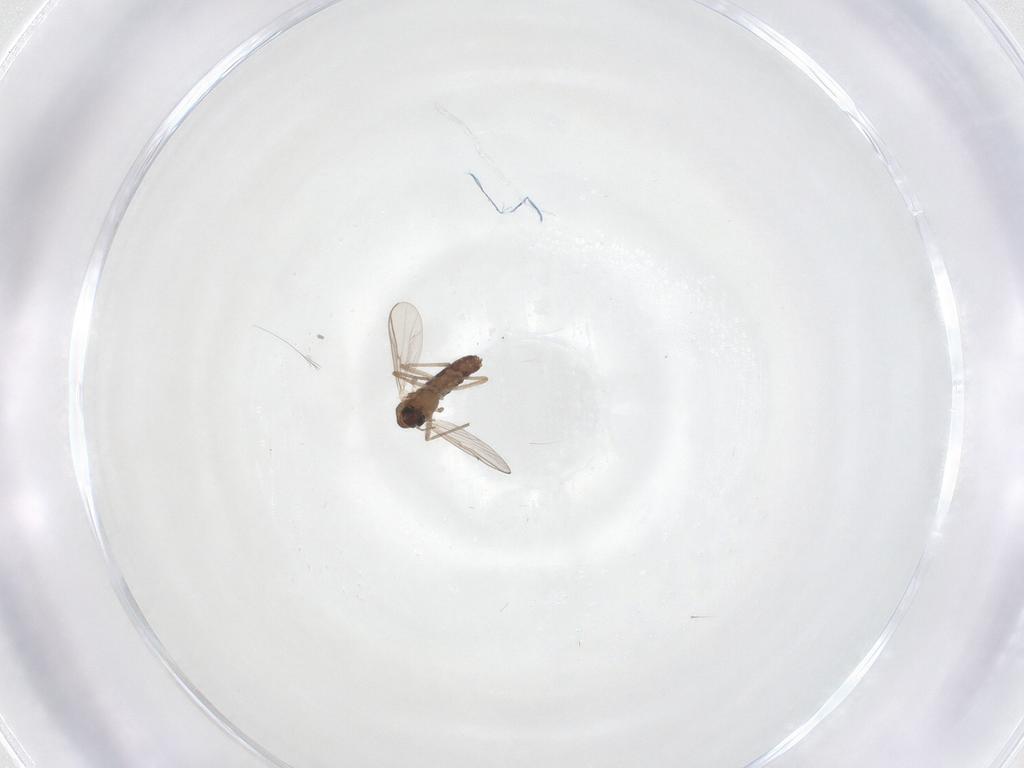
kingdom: Animalia
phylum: Arthropoda
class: Insecta
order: Diptera
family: Chironomidae
